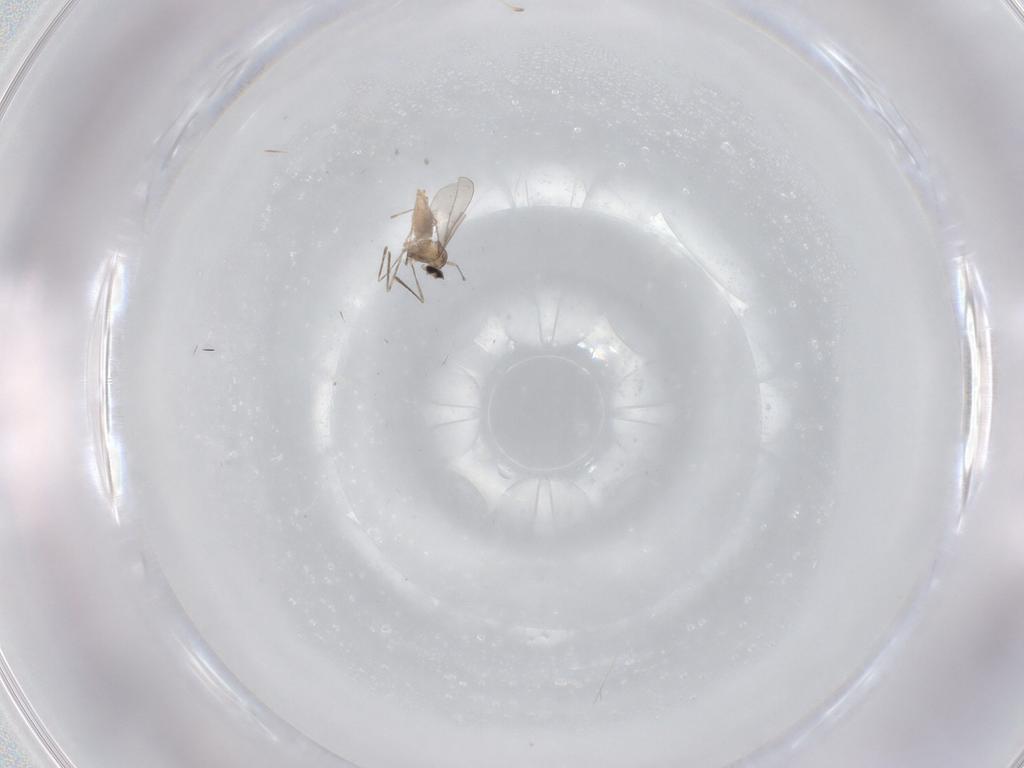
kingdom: Animalia
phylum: Arthropoda
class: Insecta
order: Diptera
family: Cecidomyiidae
